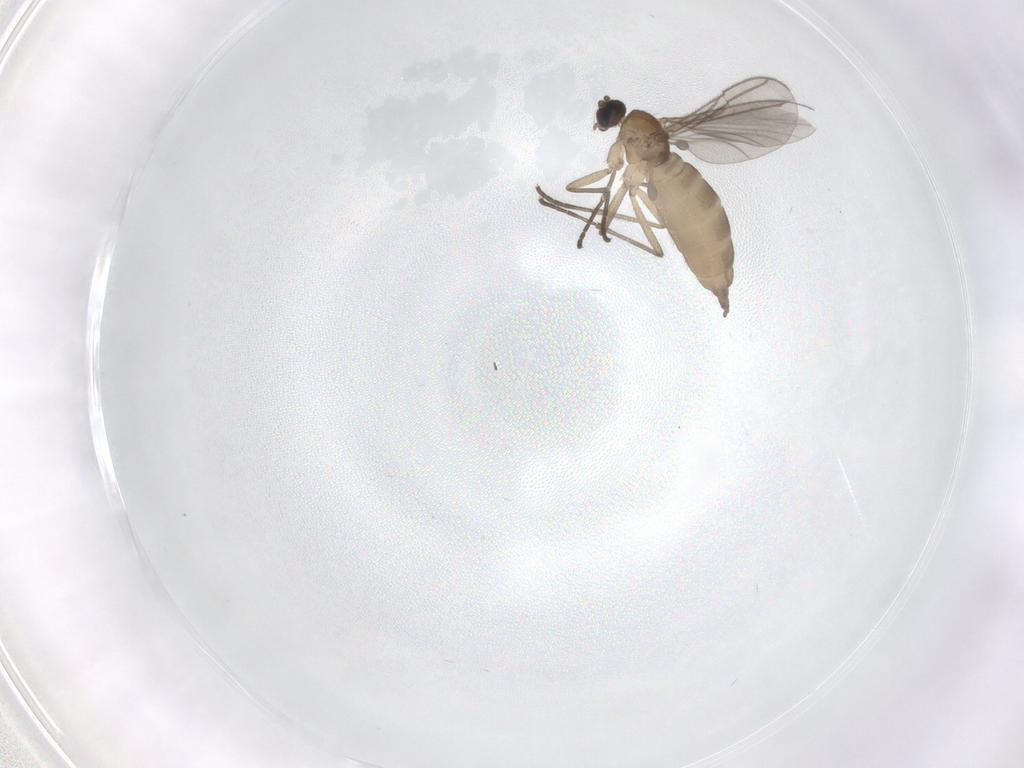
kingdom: Animalia
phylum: Arthropoda
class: Insecta
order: Diptera
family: Sciaridae
